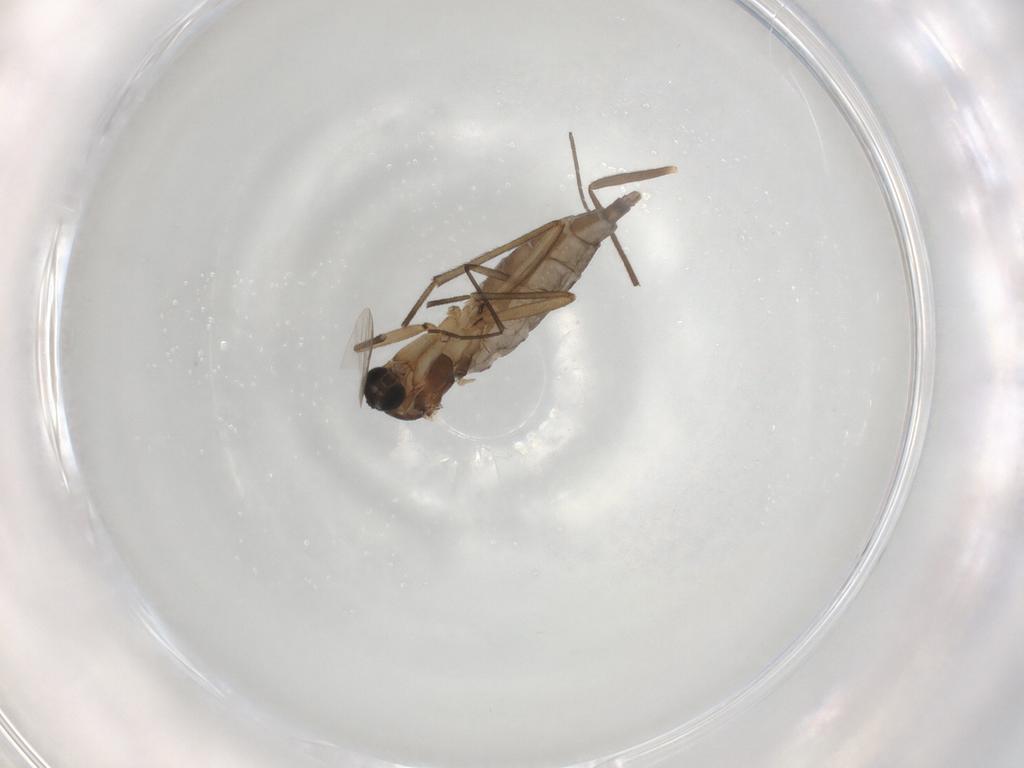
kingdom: Animalia
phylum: Arthropoda
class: Insecta
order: Diptera
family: Sciaridae
